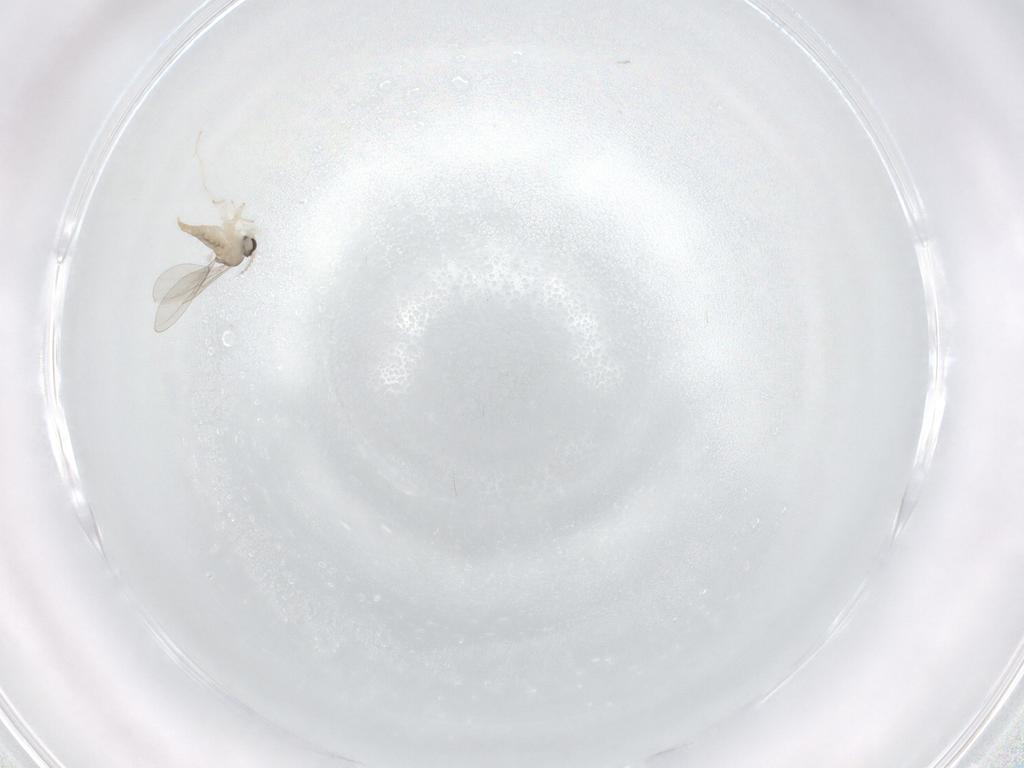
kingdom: Animalia
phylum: Arthropoda
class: Insecta
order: Diptera
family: Cecidomyiidae
